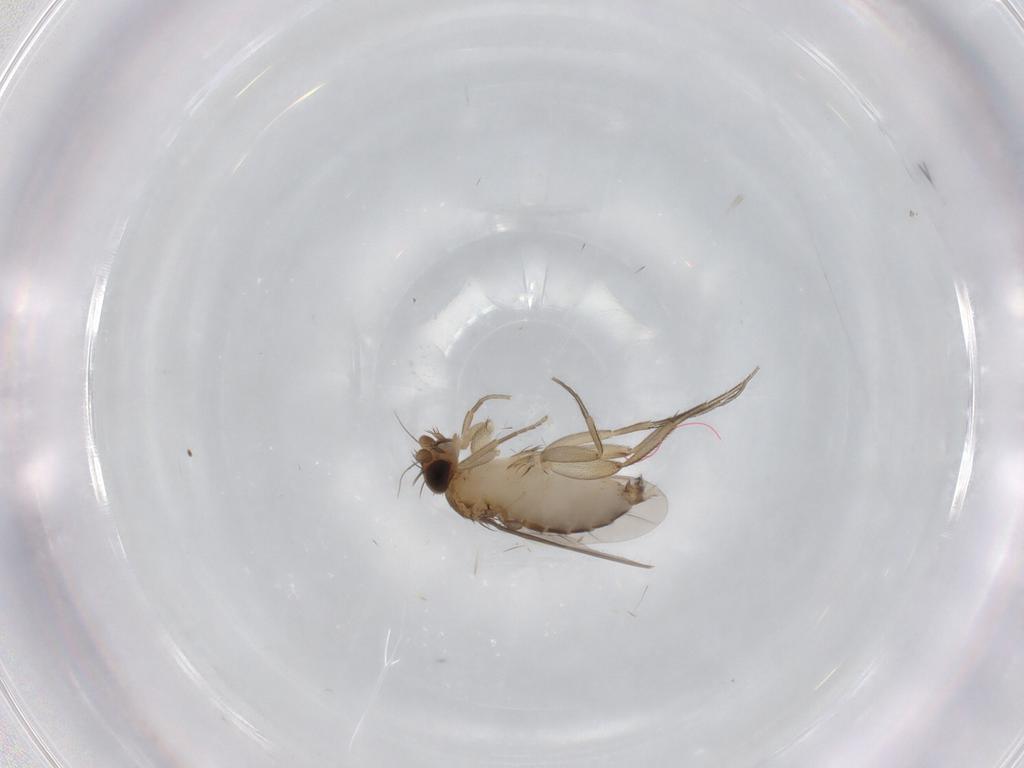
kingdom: Animalia
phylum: Arthropoda
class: Insecta
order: Diptera
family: Phoridae
